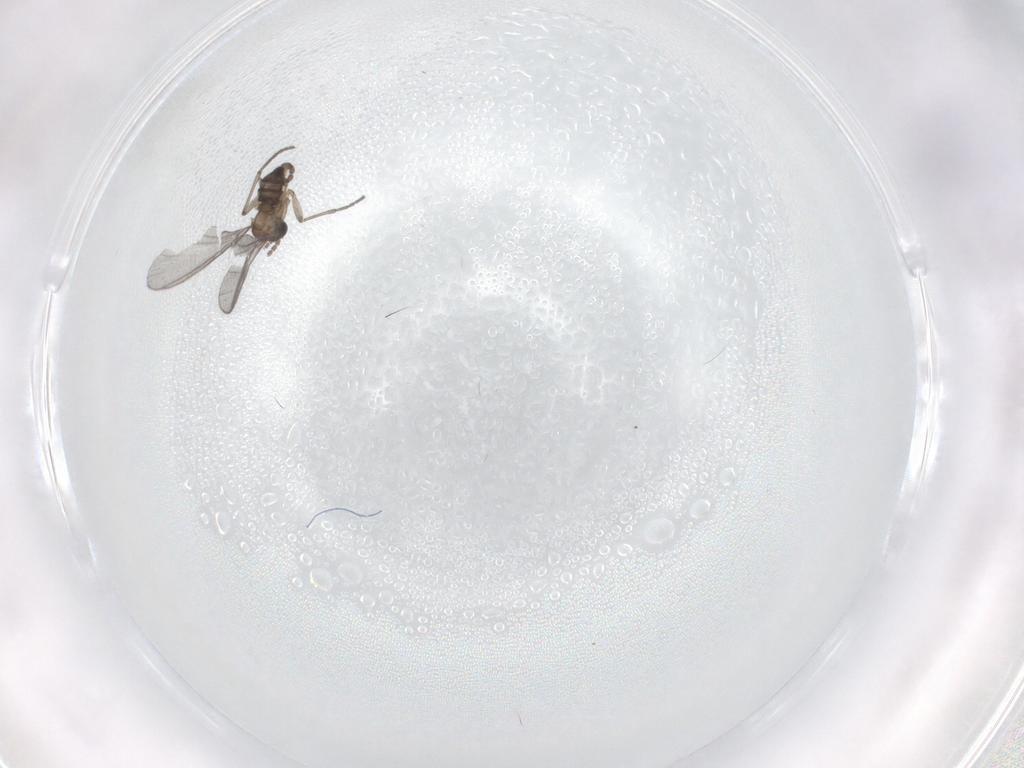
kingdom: Animalia
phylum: Arthropoda
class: Insecta
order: Diptera
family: Sciaridae
